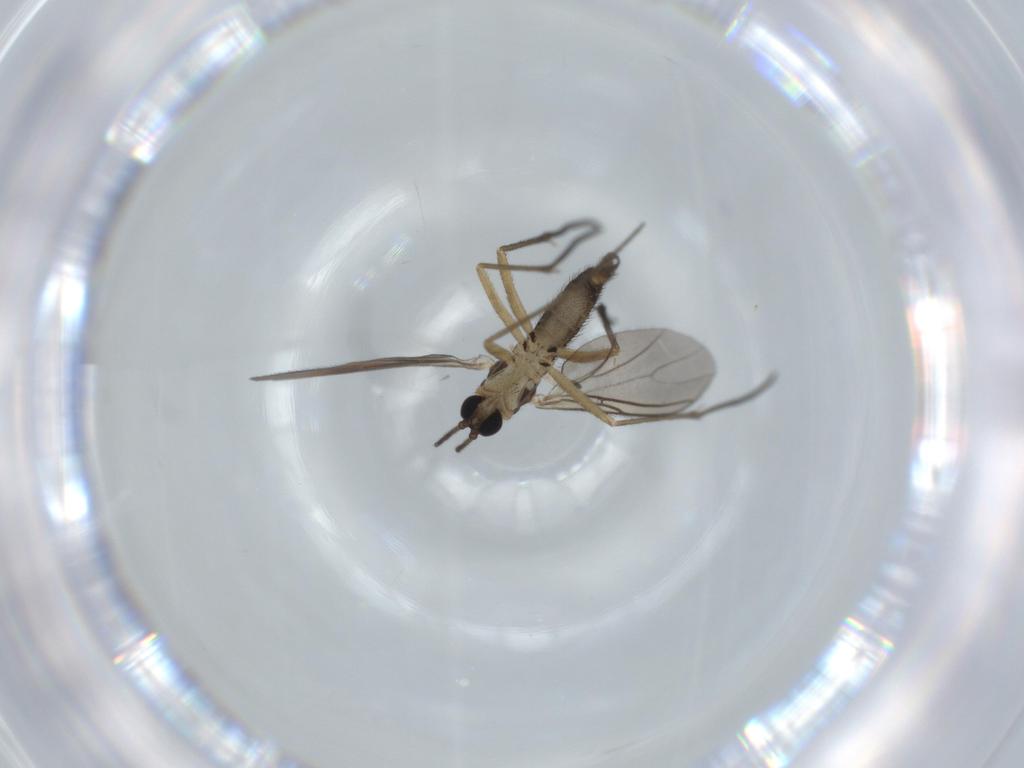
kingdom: Animalia
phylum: Arthropoda
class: Insecta
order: Diptera
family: Sciaridae
